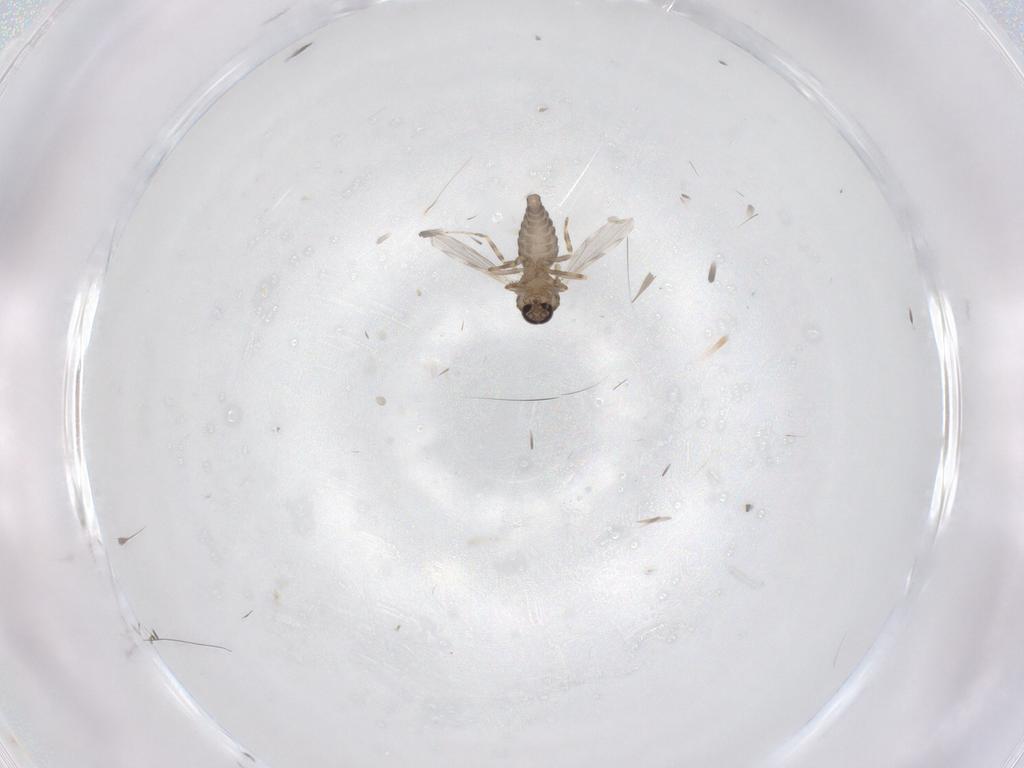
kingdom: Animalia
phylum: Arthropoda
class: Insecta
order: Diptera
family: Ceratopogonidae
